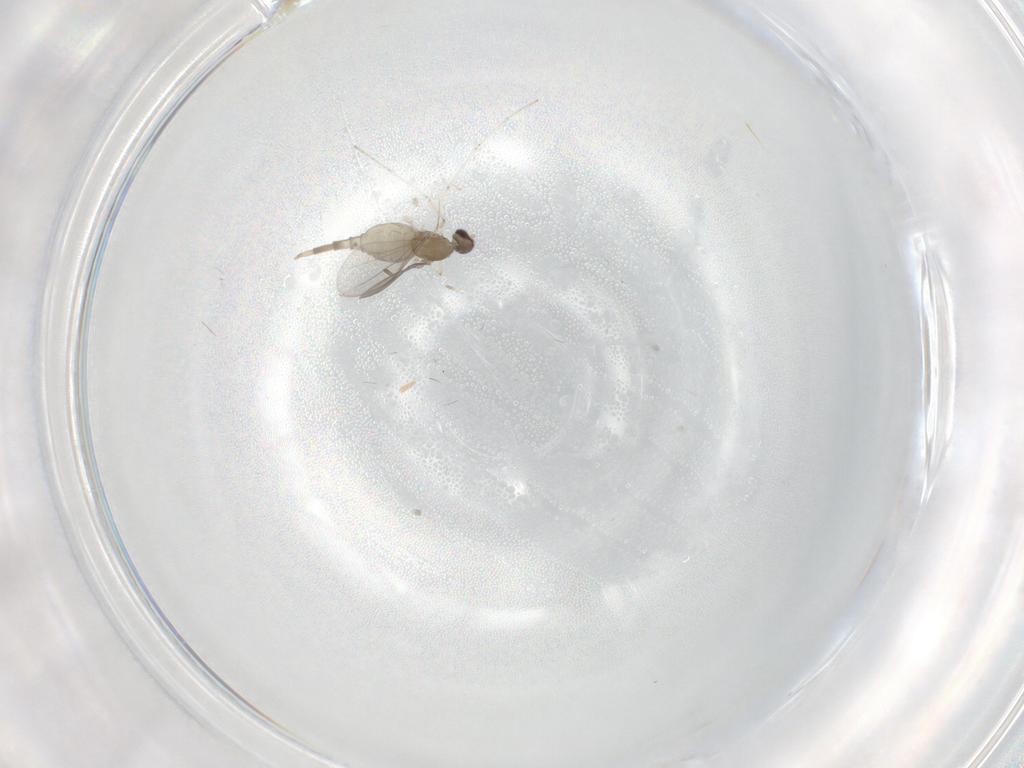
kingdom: Animalia
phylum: Arthropoda
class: Insecta
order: Diptera
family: Cecidomyiidae
